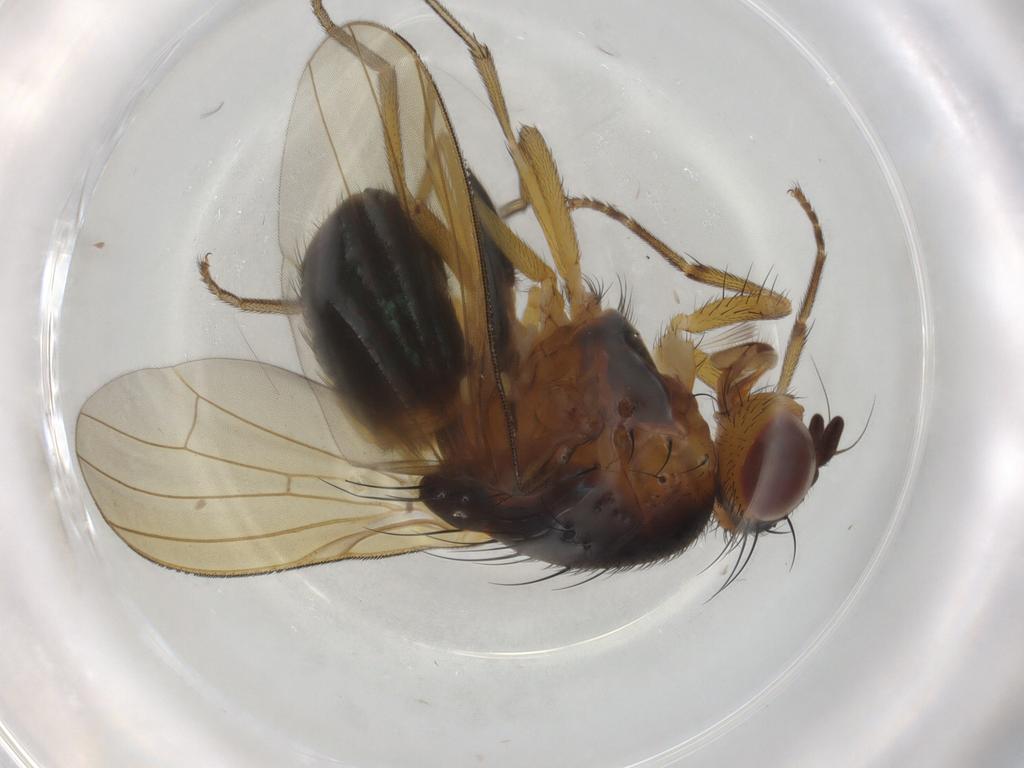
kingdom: Animalia
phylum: Arthropoda
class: Insecta
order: Diptera
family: Lauxaniidae
